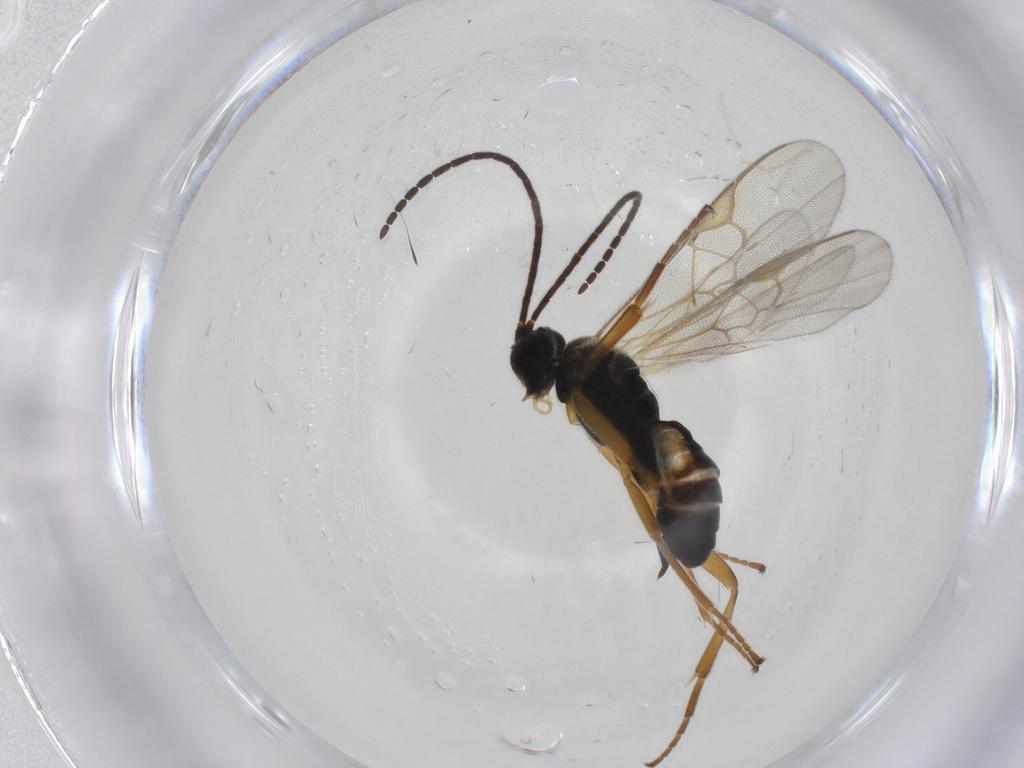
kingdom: Animalia
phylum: Arthropoda
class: Insecta
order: Hymenoptera
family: Braconidae
